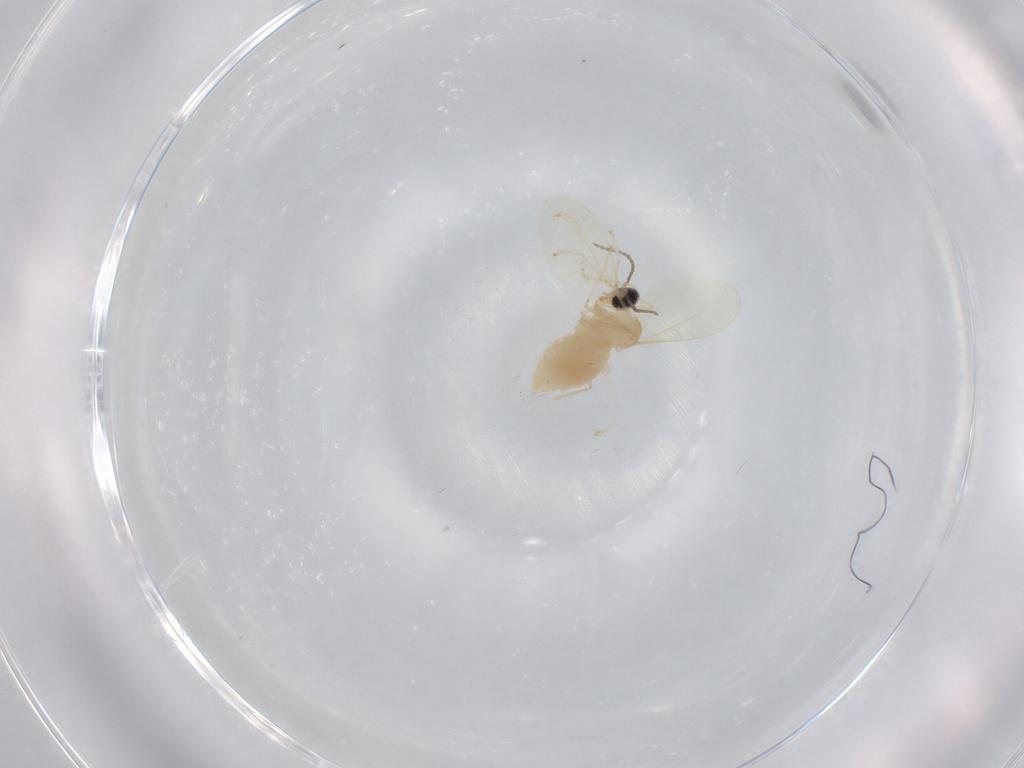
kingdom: Animalia
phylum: Arthropoda
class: Insecta
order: Diptera
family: Cecidomyiidae
